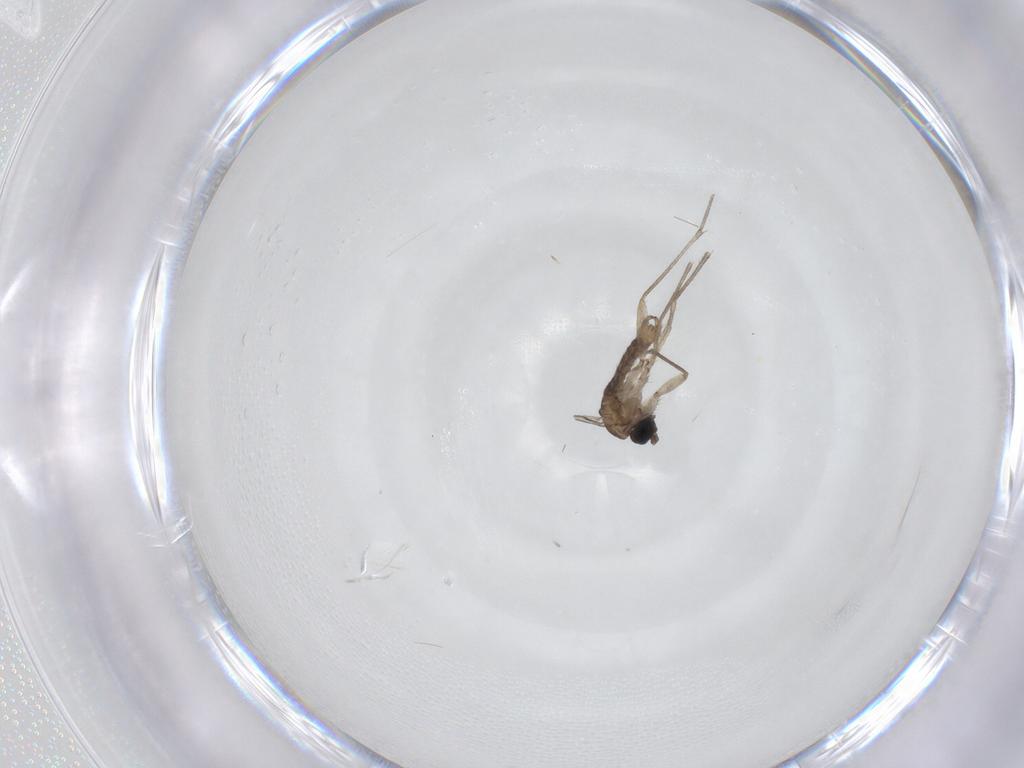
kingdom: Animalia
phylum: Arthropoda
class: Insecta
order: Diptera
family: Sciaridae
